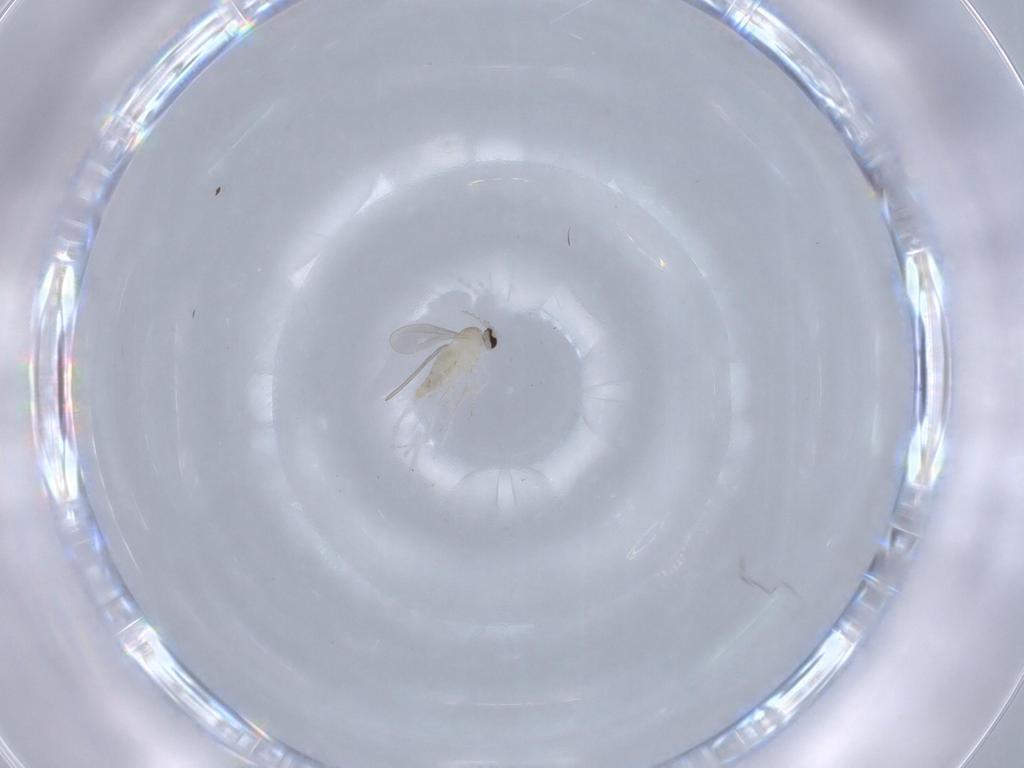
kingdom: Animalia
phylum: Arthropoda
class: Insecta
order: Diptera
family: Cecidomyiidae
